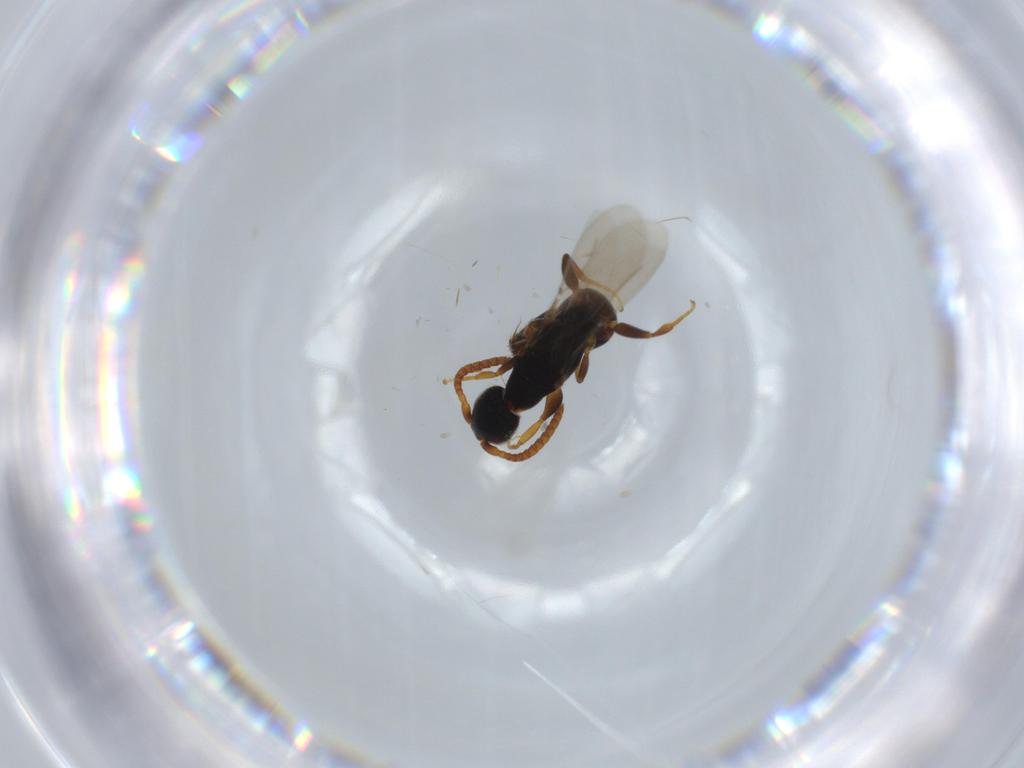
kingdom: Animalia
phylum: Arthropoda
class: Insecta
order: Hymenoptera
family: Bethylidae
